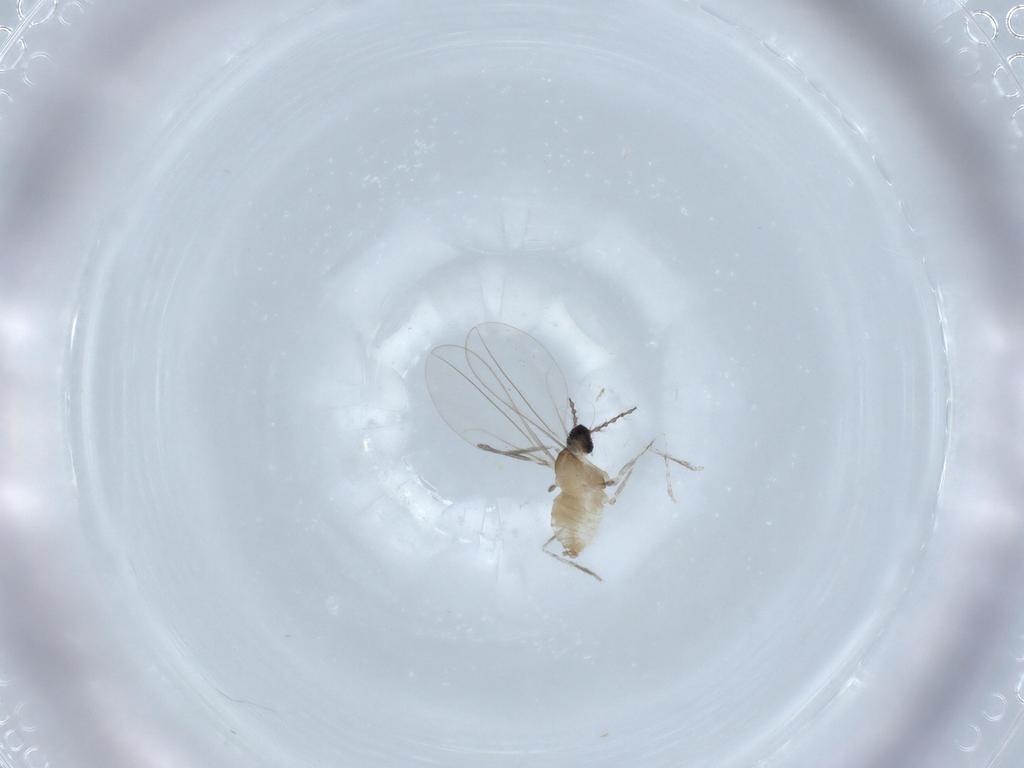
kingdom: Animalia
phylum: Arthropoda
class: Insecta
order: Diptera
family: Cecidomyiidae
